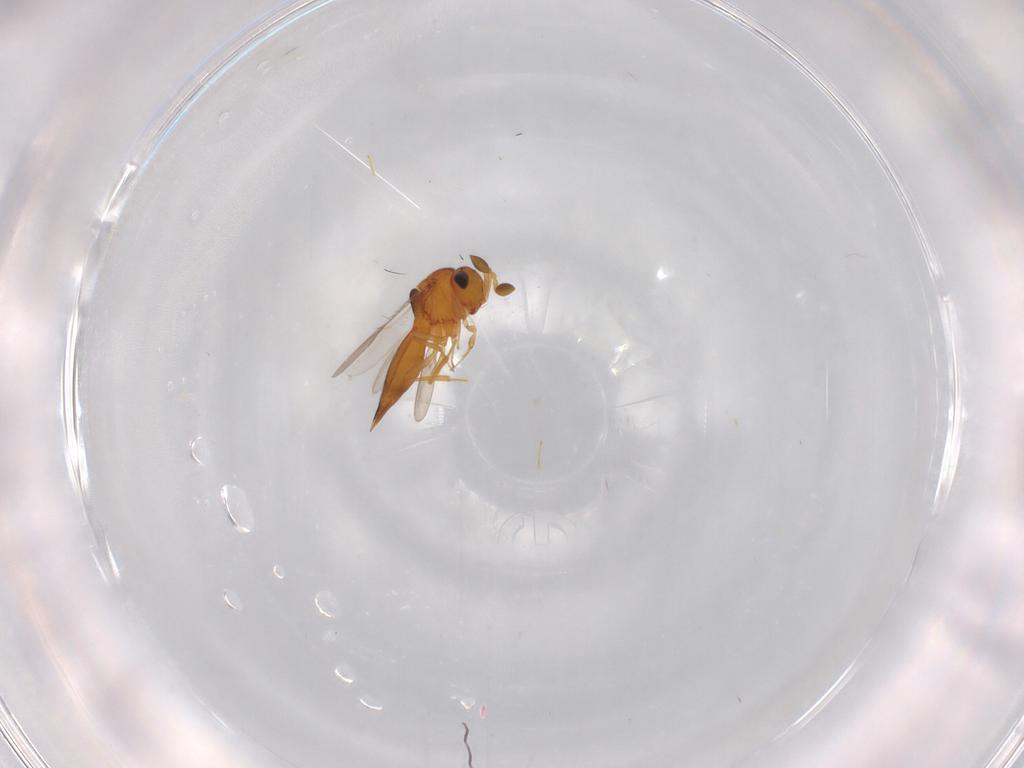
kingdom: Animalia
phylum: Arthropoda
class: Insecta
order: Hymenoptera
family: Scelionidae
